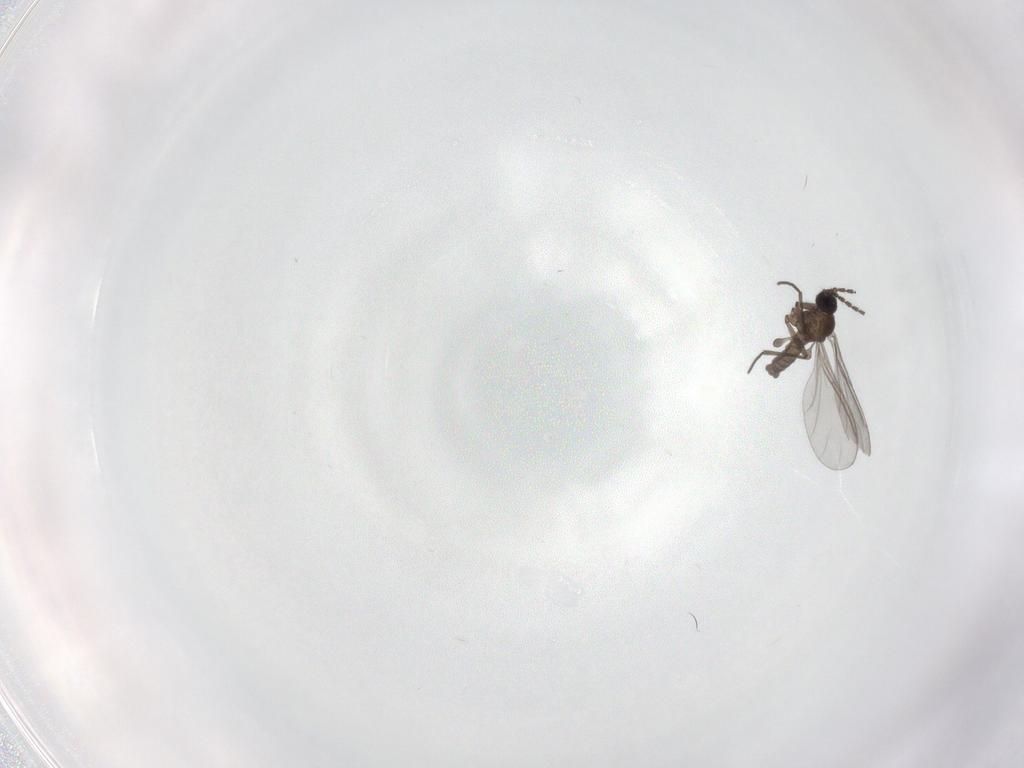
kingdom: Animalia
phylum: Arthropoda
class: Insecta
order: Diptera
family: Sciaridae
